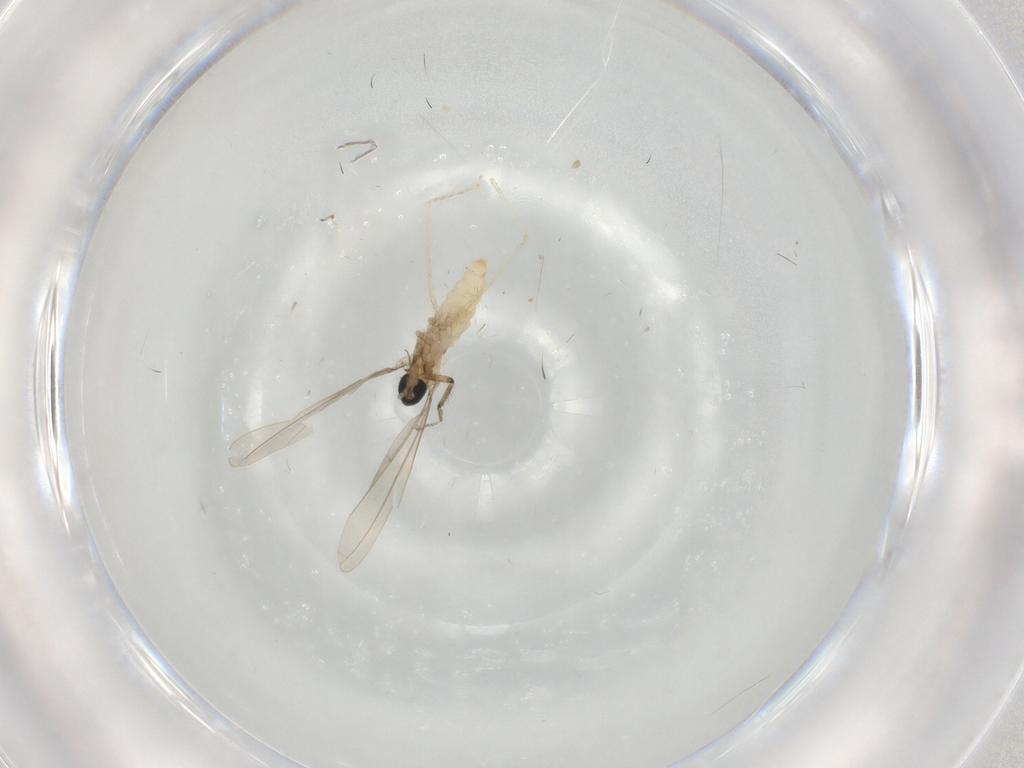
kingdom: Animalia
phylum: Arthropoda
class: Insecta
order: Diptera
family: Cecidomyiidae
